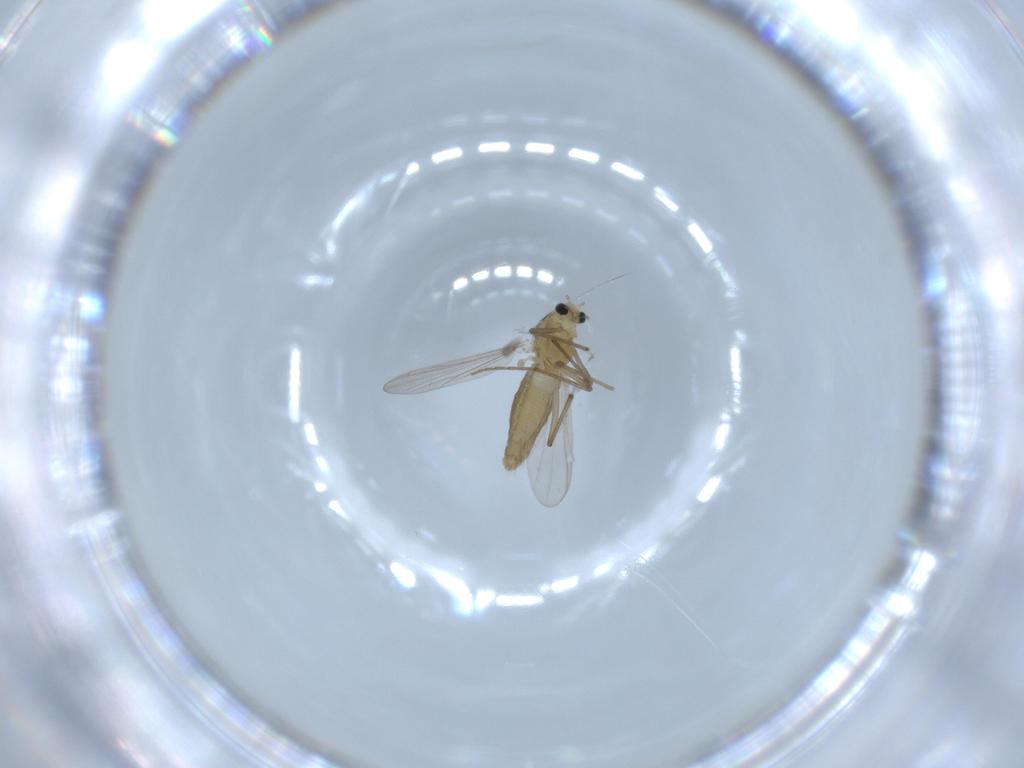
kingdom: Animalia
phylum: Arthropoda
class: Insecta
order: Diptera
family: Chironomidae
